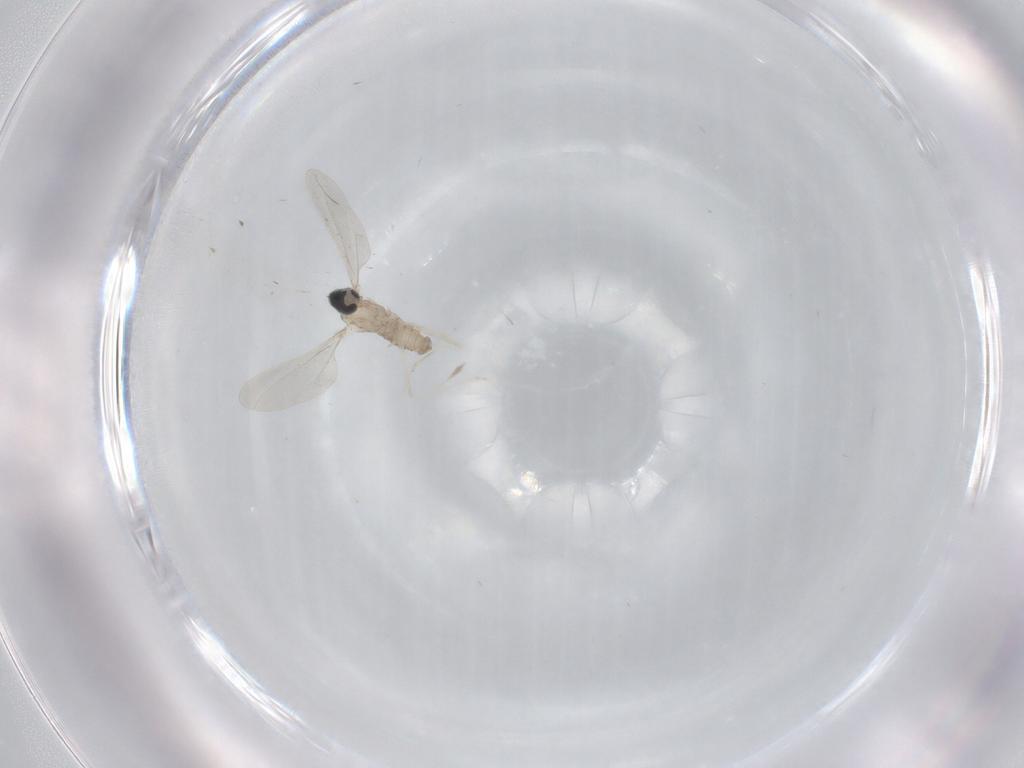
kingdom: Animalia
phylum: Arthropoda
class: Insecta
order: Diptera
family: Cecidomyiidae
